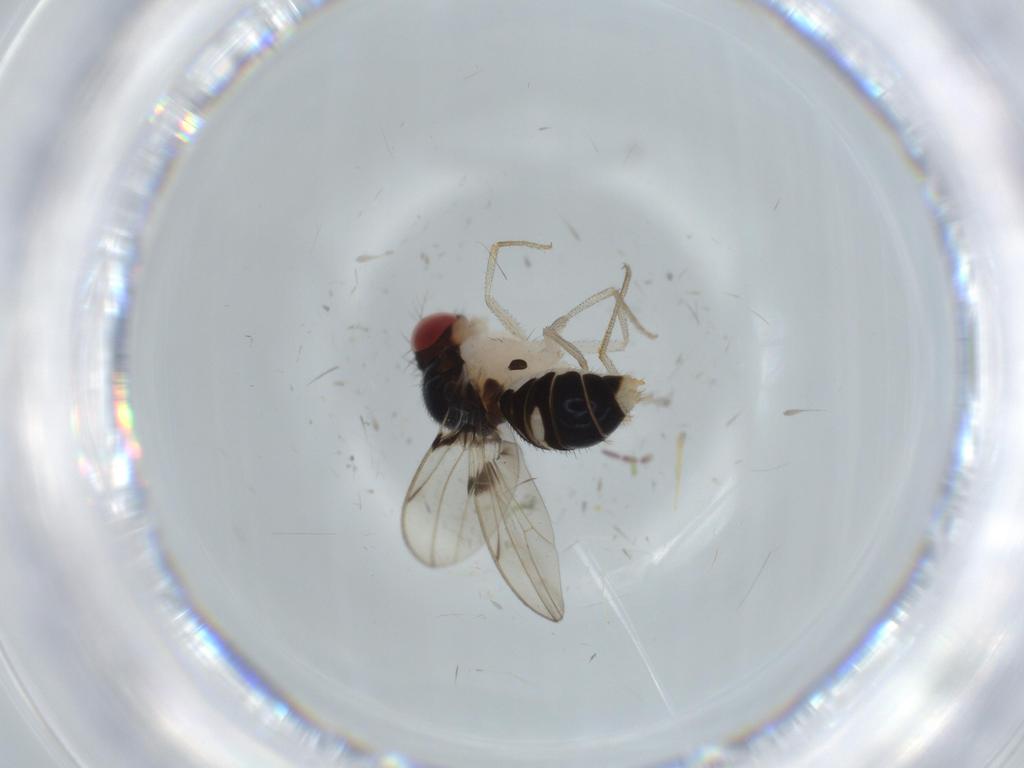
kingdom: Animalia
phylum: Arthropoda
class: Insecta
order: Diptera
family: Drosophilidae
